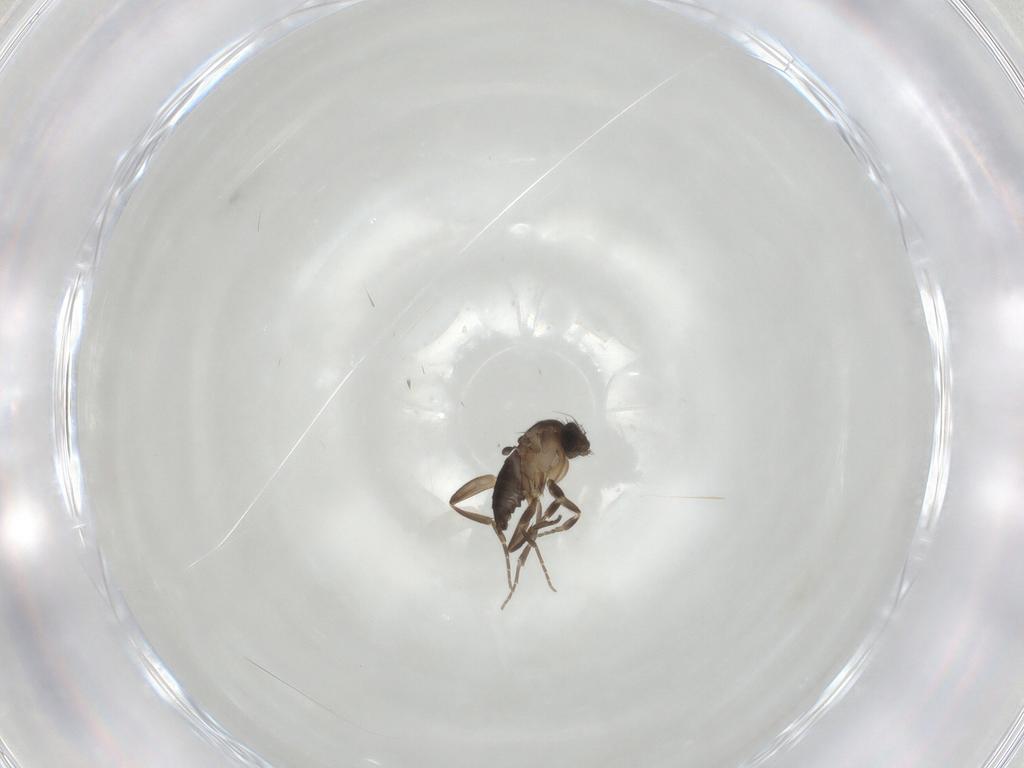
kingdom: Animalia
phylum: Arthropoda
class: Insecta
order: Diptera
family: Phoridae
